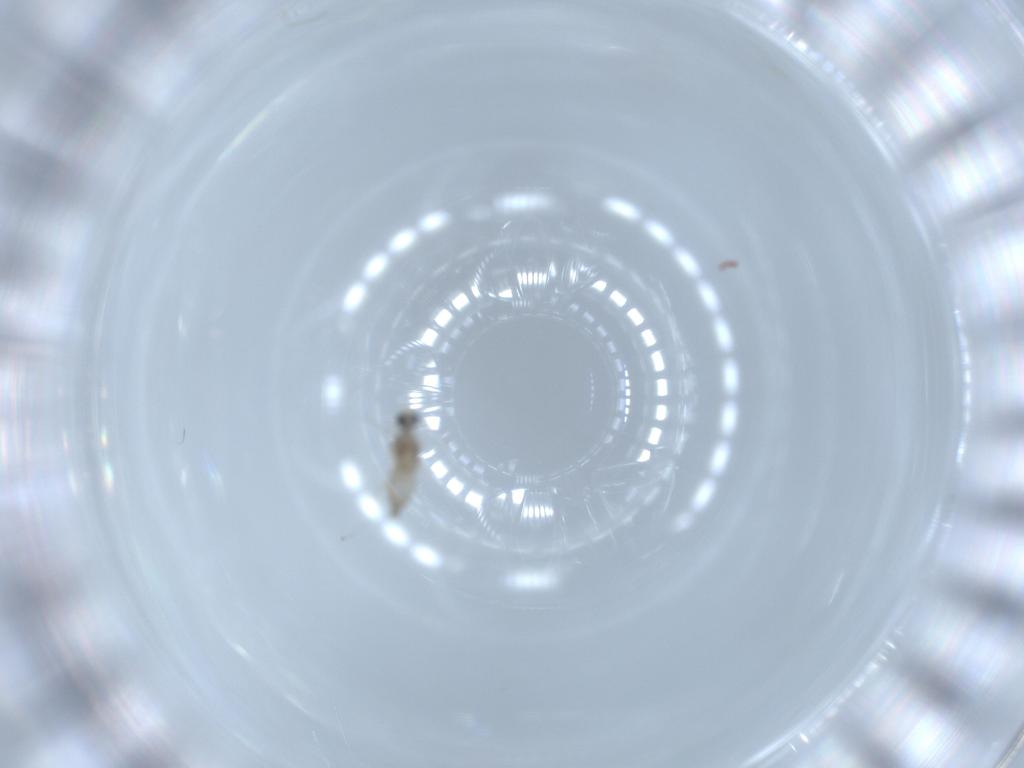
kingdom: Animalia
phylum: Arthropoda
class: Insecta
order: Diptera
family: Cecidomyiidae
